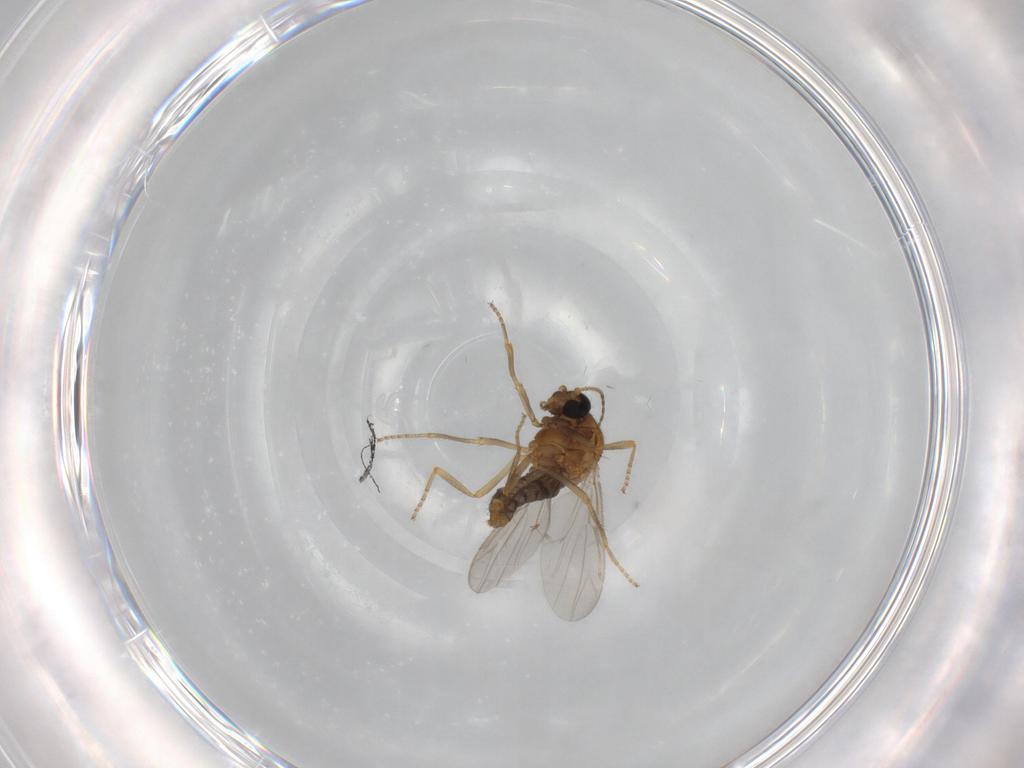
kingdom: Animalia
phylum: Arthropoda
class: Insecta
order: Diptera
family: Ceratopogonidae
